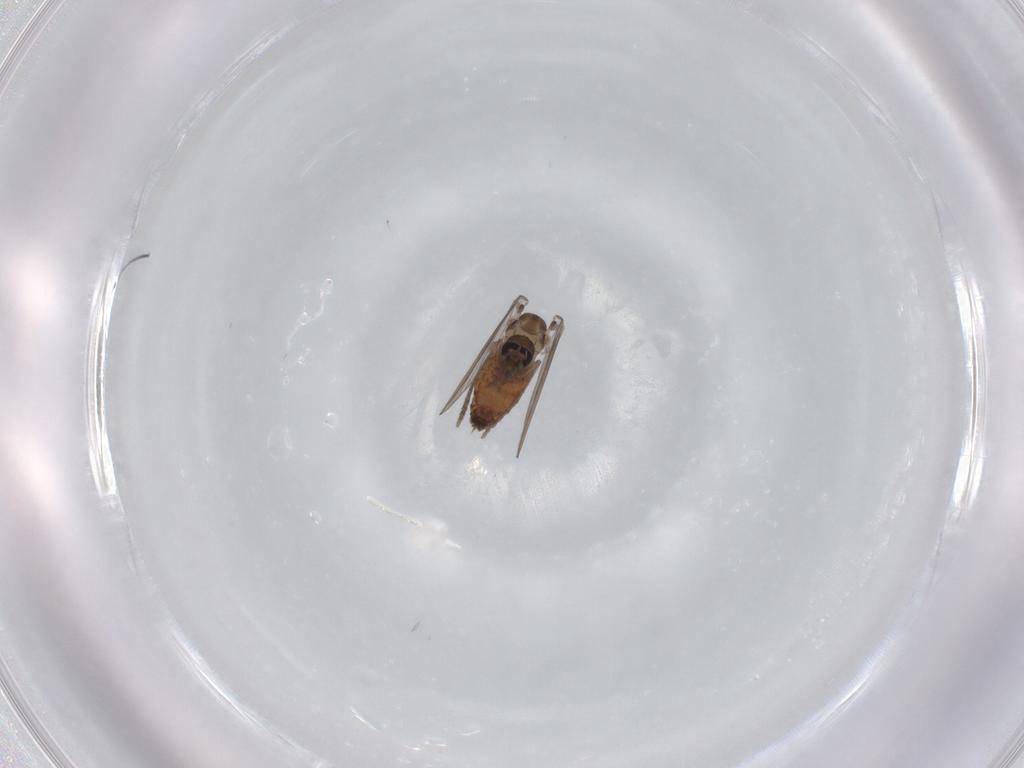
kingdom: Animalia
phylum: Arthropoda
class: Insecta
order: Diptera
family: Psychodidae
